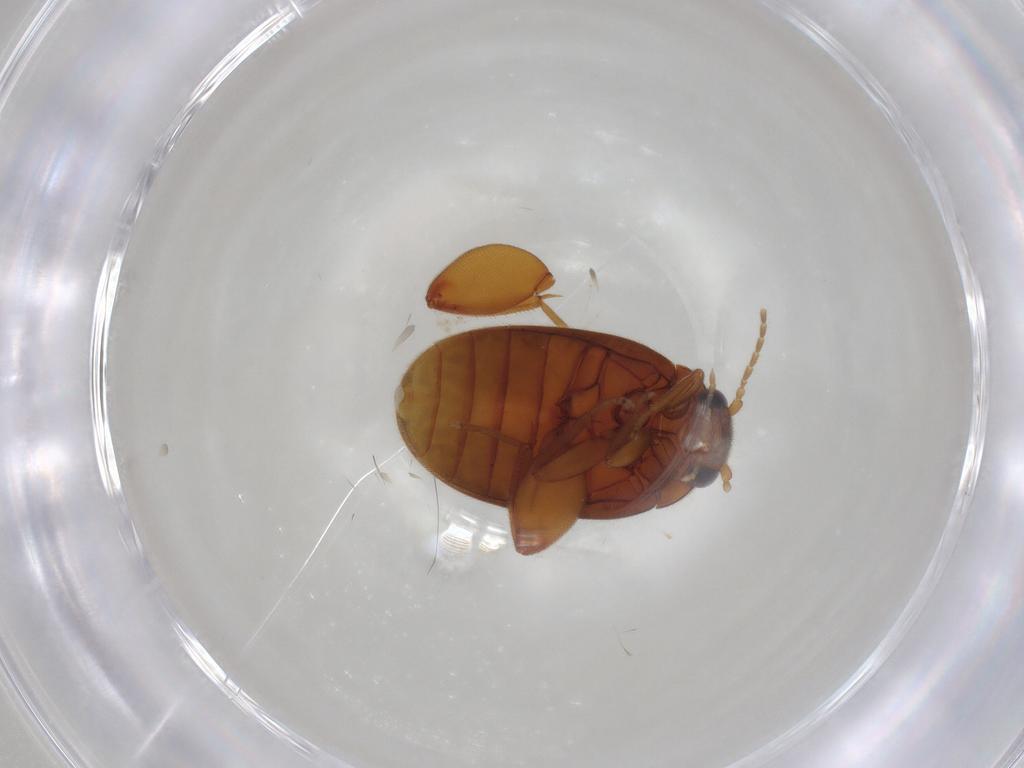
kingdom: Animalia
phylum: Arthropoda
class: Insecta
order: Coleoptera
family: Scirtidae
